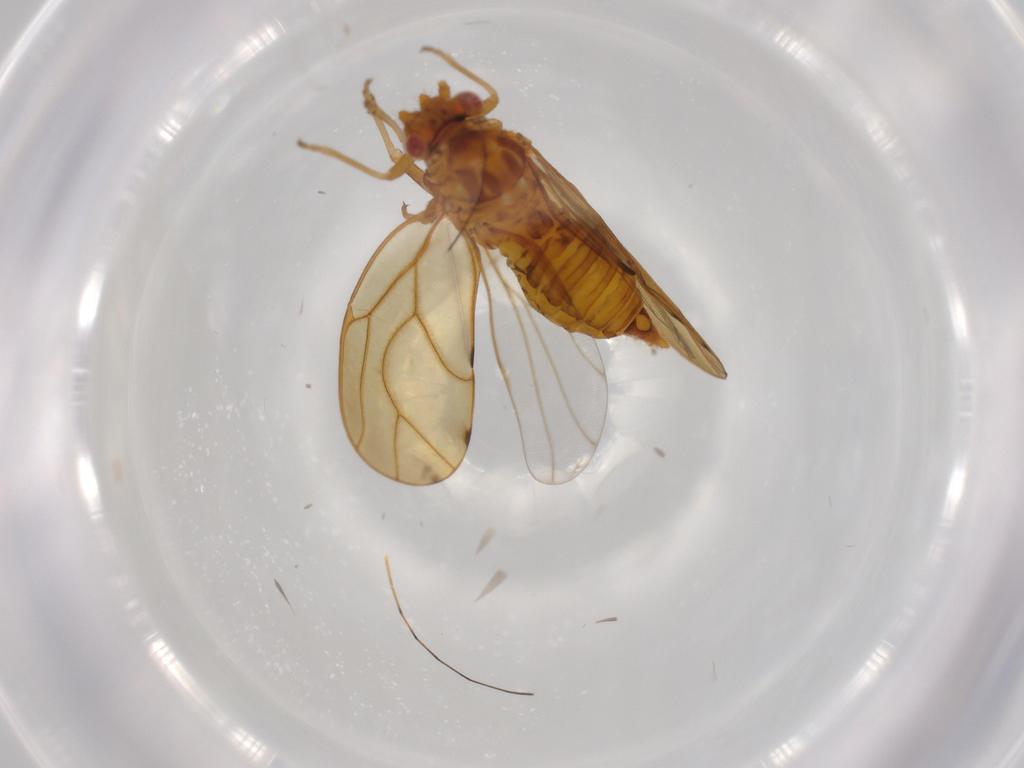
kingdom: Animalia
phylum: Arthropoda
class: Insecta
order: Hemiptera
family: Psylloidea_incertae_sedis
